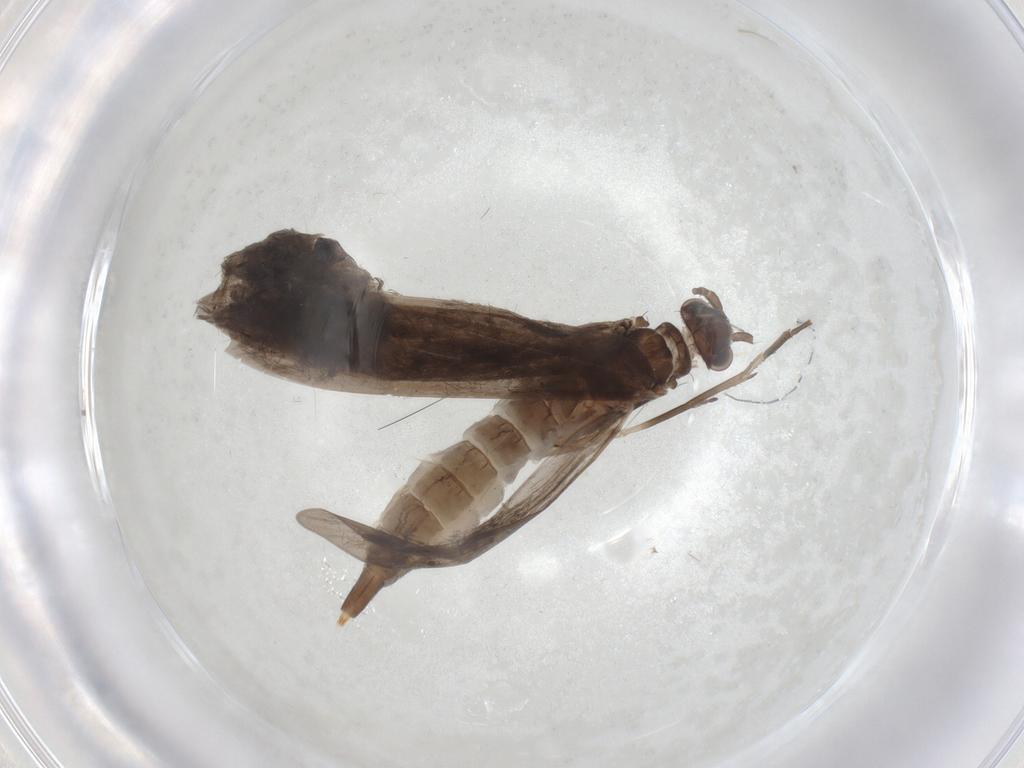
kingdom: Animalia
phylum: Arthropoda
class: Insecta
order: Trichoptera
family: Xiphocentronidae
